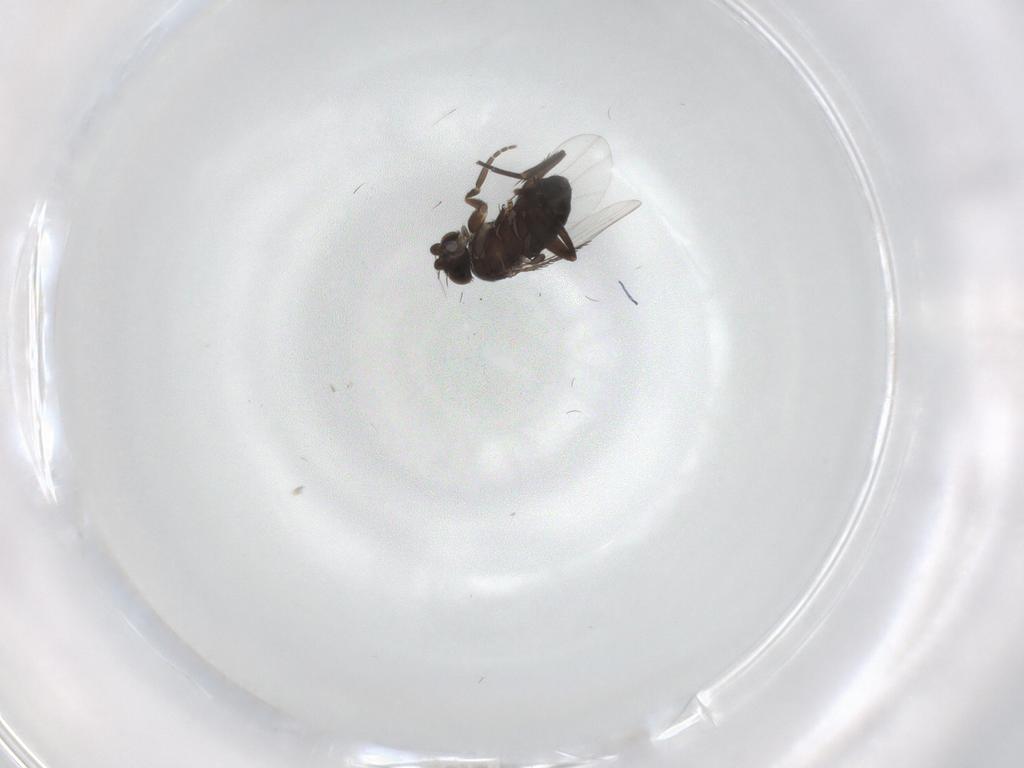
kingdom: Animalia
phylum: Arthropoda
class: Insecta
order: Diptera
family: Phoridae
